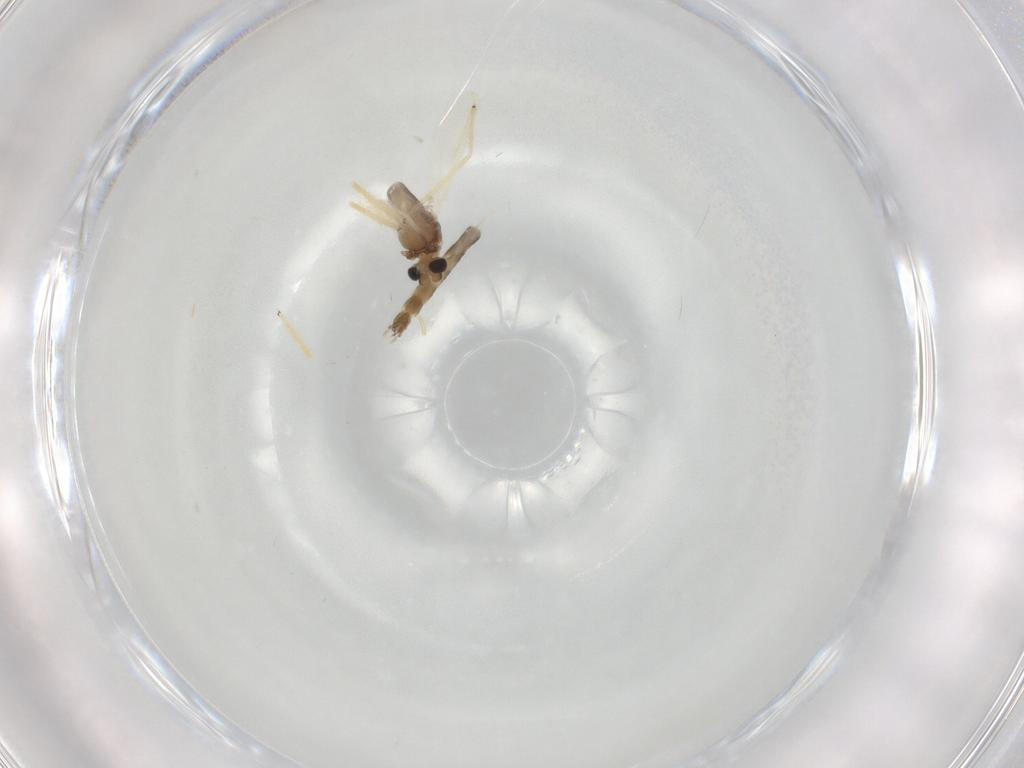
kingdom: Animalia
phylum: Arthropoda
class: Insecta
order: Diptera
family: Chironomidae
